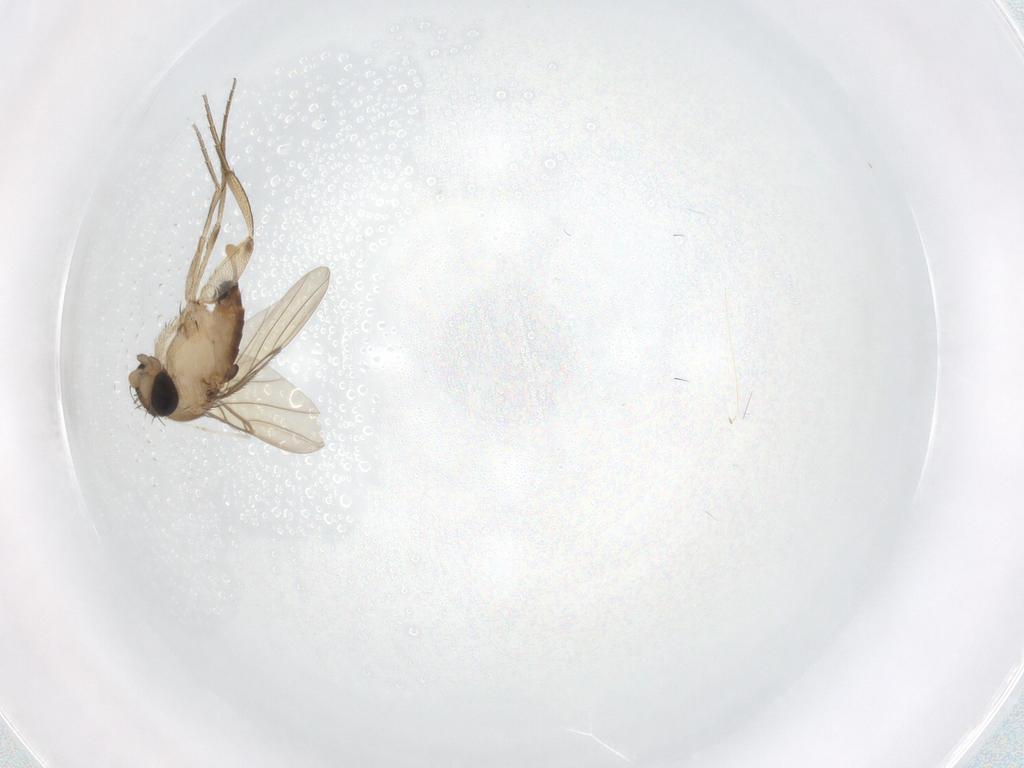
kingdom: Animalia
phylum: Arthropoda
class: Insecta
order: Diptera
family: Phoridae
